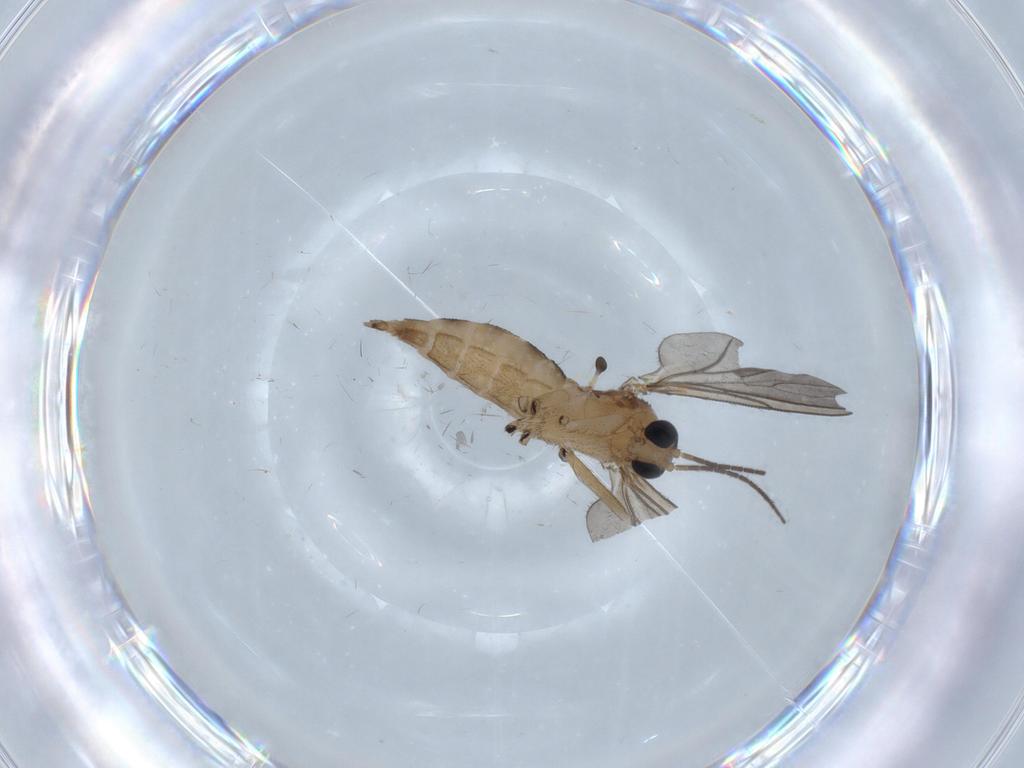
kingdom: Animalia
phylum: Arthropoda
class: Insecta
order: Diptera
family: Sciaridae
